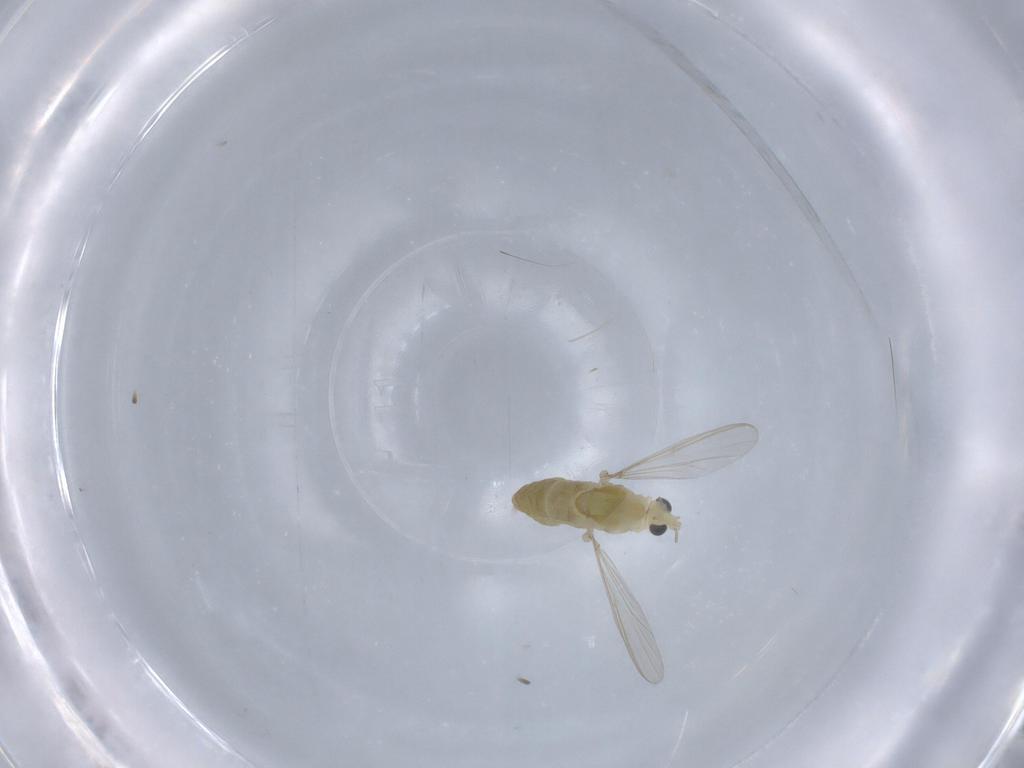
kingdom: Animalia
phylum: Arthropoda
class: Insecta
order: Diptera
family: Chironomidae
